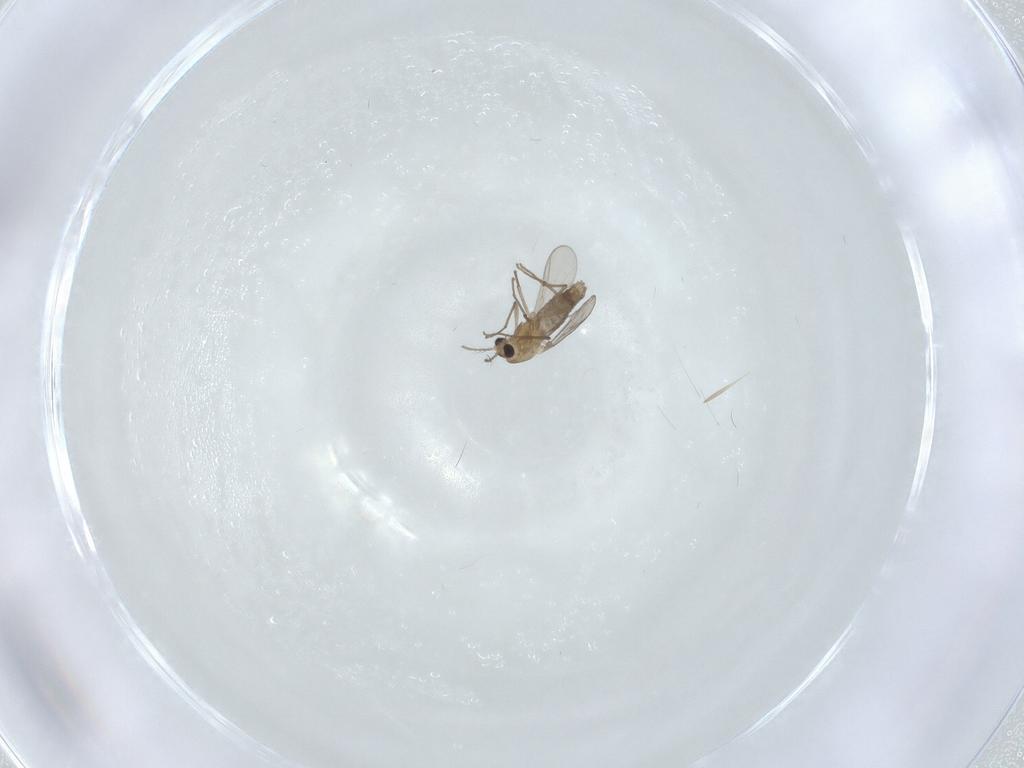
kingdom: Animalia
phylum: Arthropoda
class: Insecta
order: Diptera
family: Chironomidae
